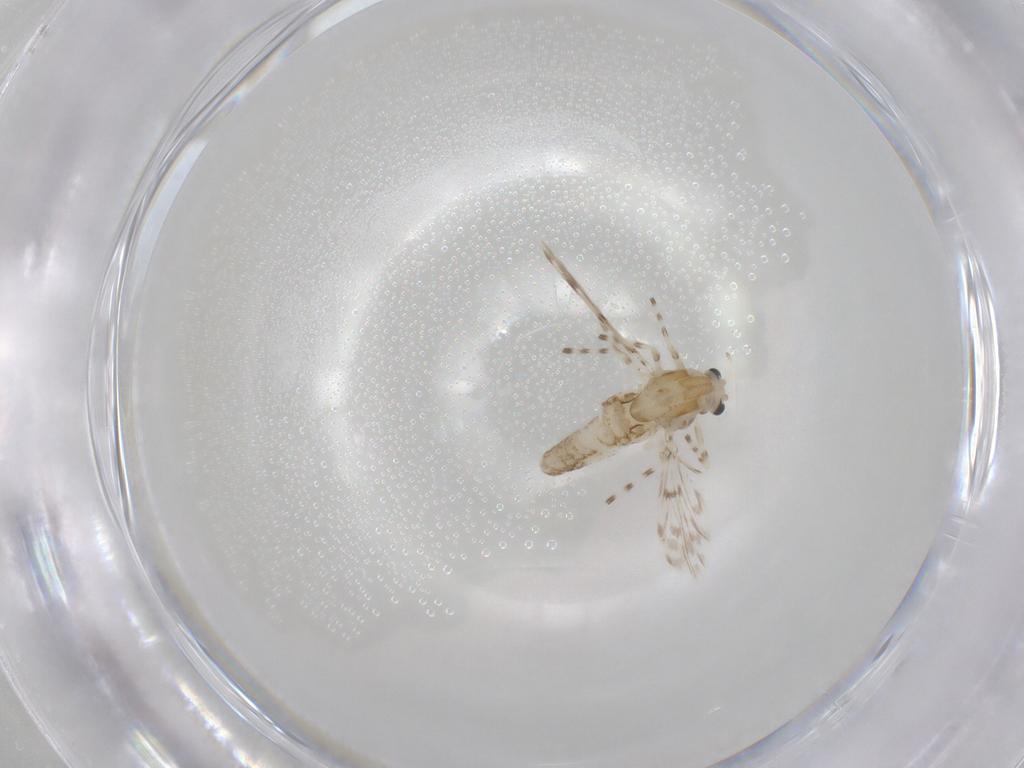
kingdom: Animalia
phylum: Arthropoda
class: Insecta
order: Diptera
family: Chironomidae
